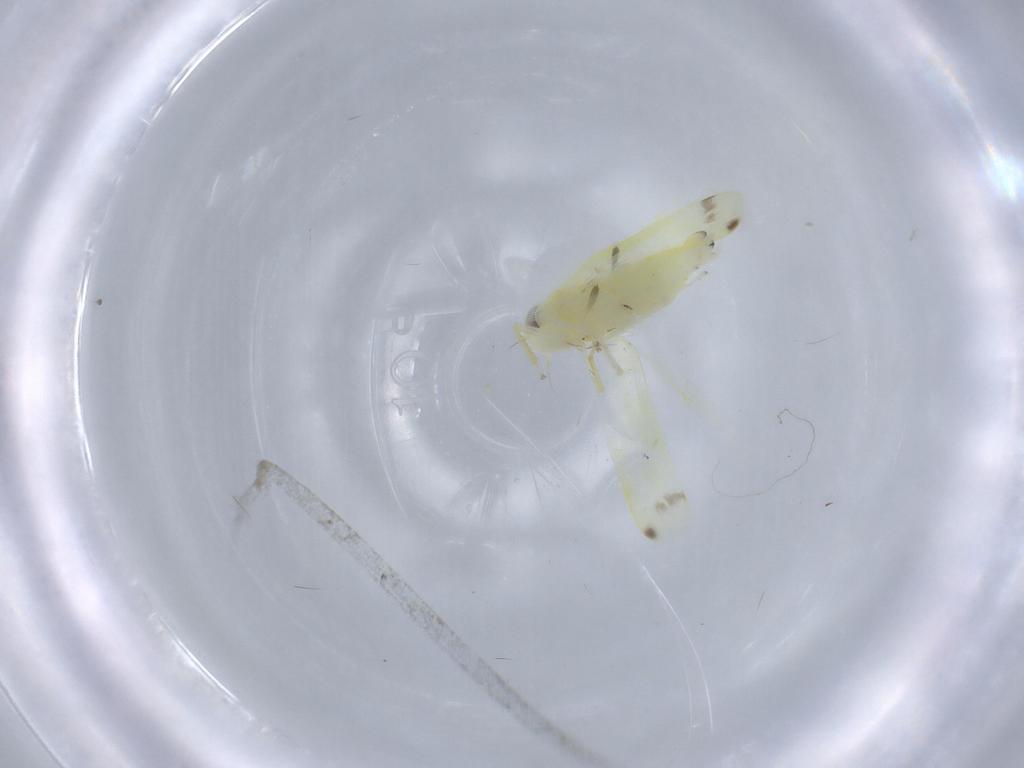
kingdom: Animalia
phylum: Arthropoda
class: Insecta
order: Hemiptera
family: Cicadellidae
